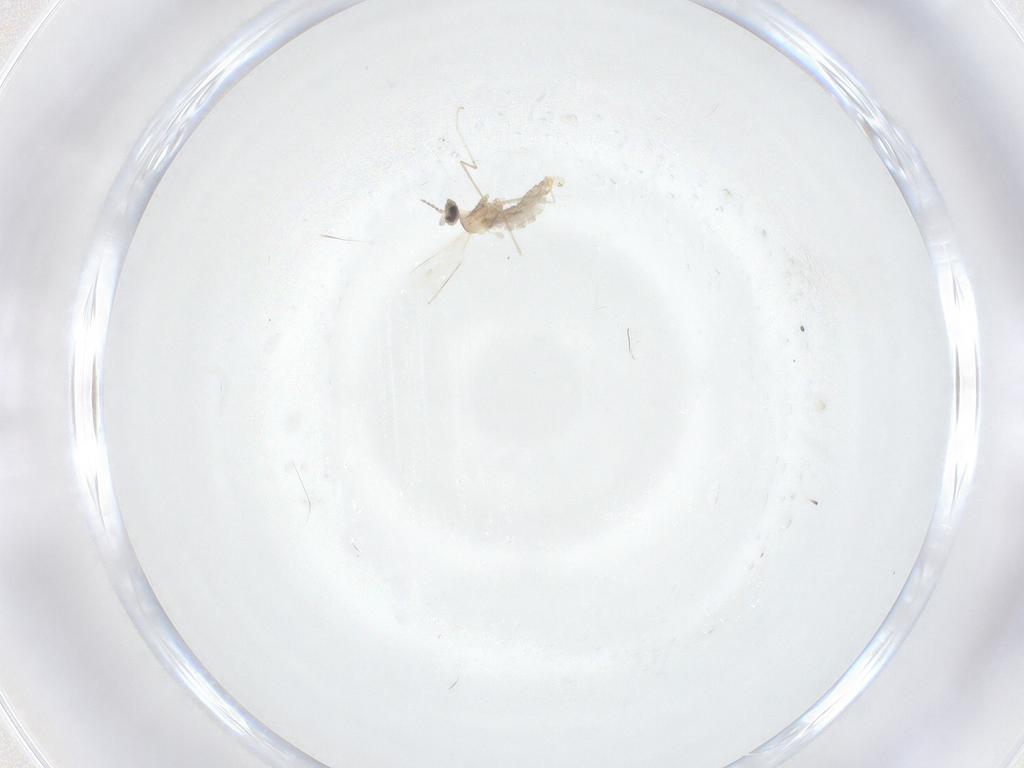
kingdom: Animalia
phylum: Arthropoda
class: Insecta
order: Diptera
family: Cecidomyiidae
